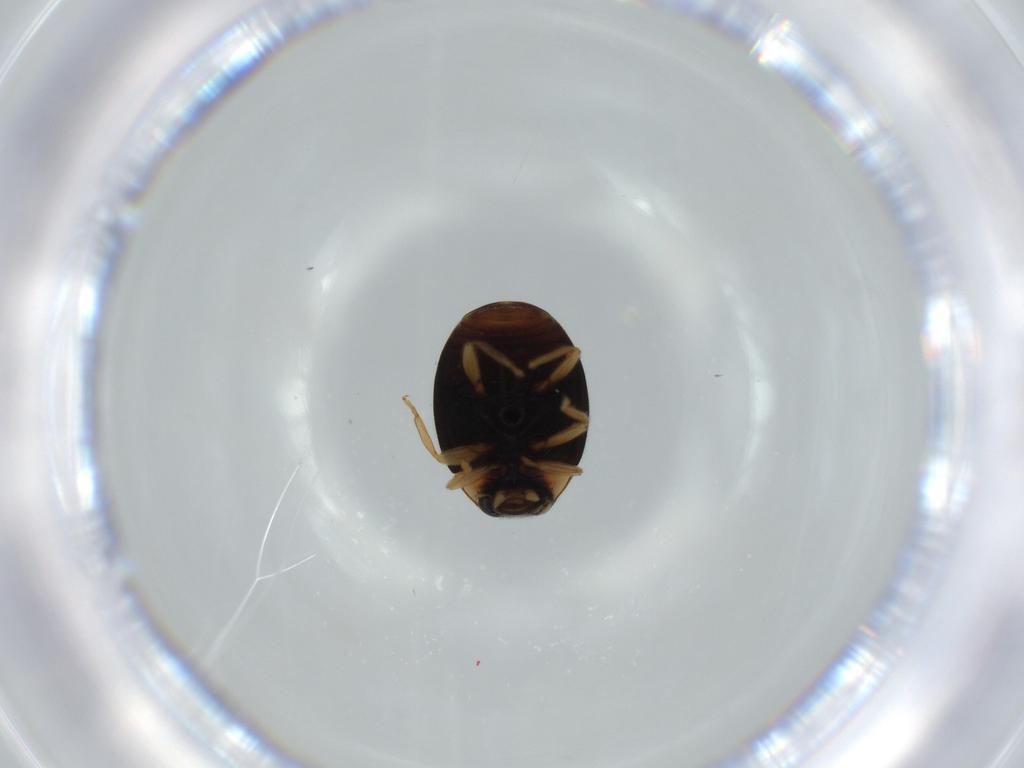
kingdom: Animalia
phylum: Arthropoda
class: Insecta
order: Coleoptera
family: Coccinellidae
